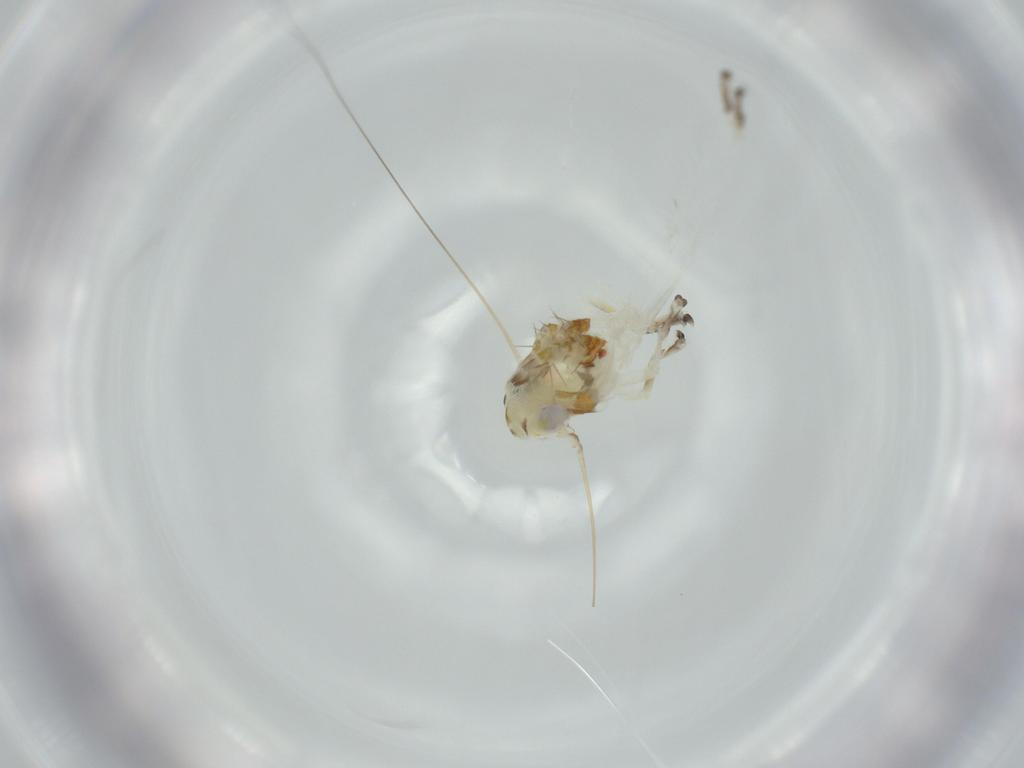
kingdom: Animalia
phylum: Arthropoda
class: Insecta
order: Hemiptera
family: Cicadellidae
